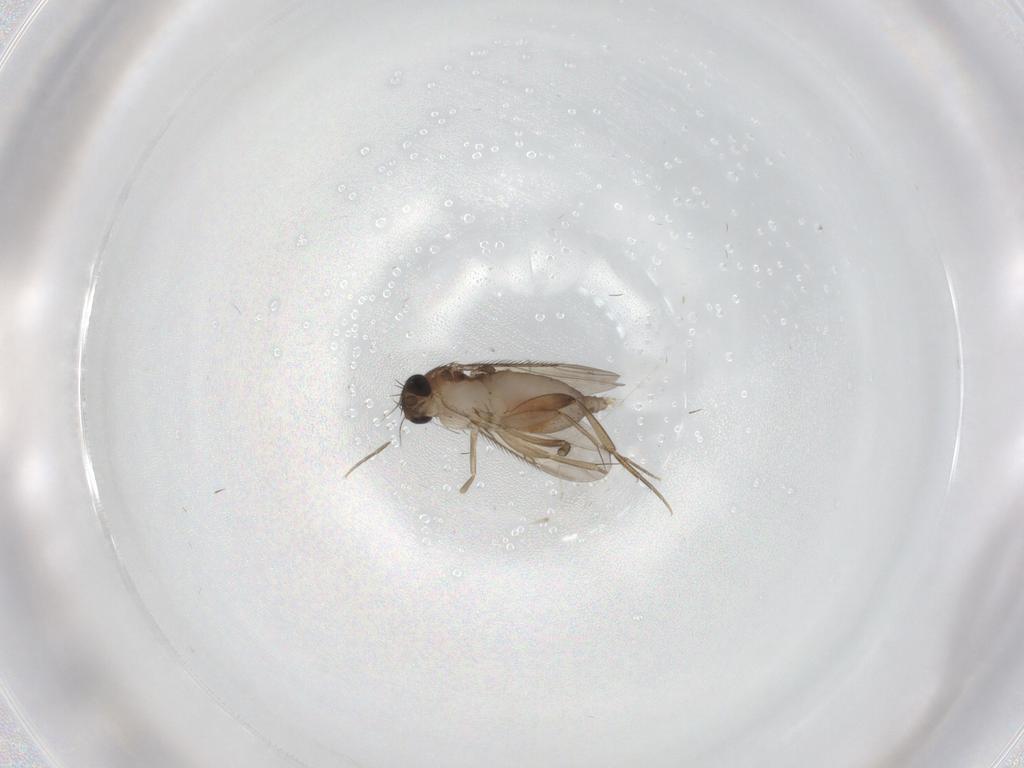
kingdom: Animalia
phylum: Arthropoda
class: Insecta
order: Diptera
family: Phoridae
